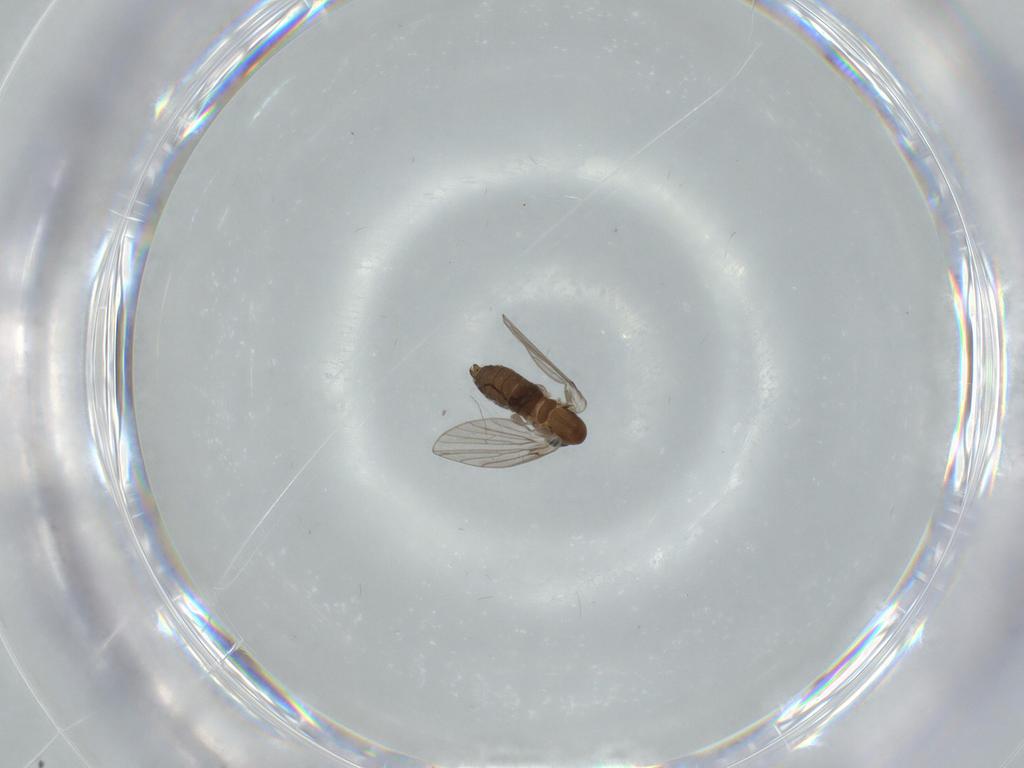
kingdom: Animalia
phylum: Arthropoda
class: Insecta
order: Diptera
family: Psychodidae
